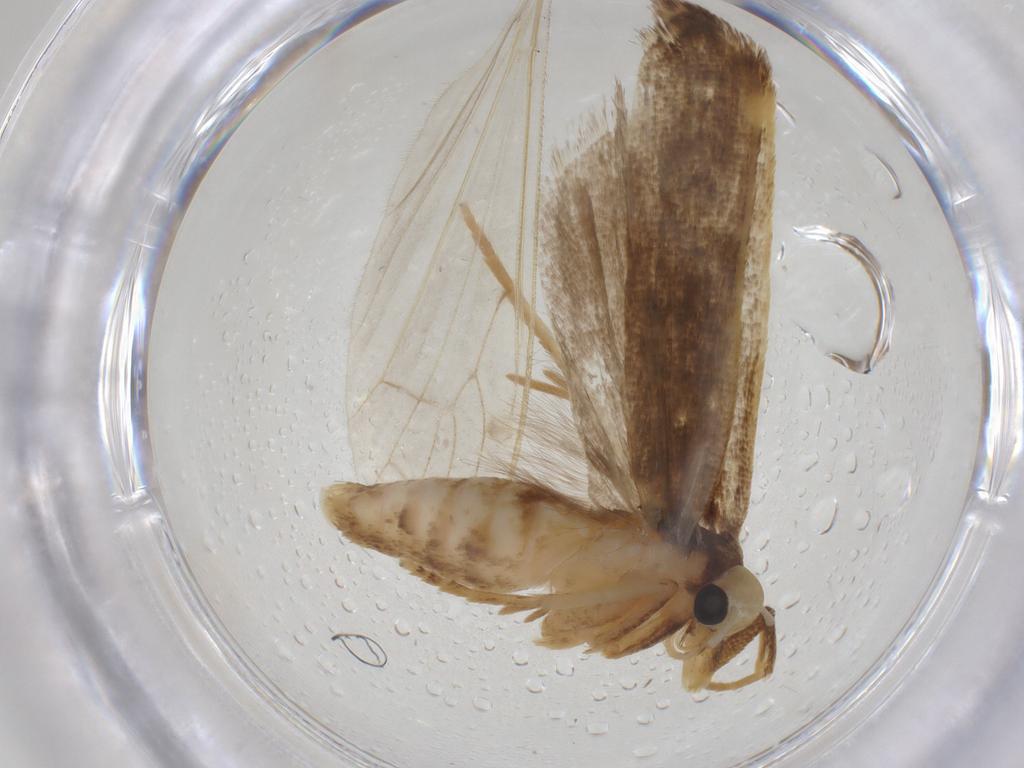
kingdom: Animalia
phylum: Arthropoda
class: Insecta
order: Lepidoptera
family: Gelechiidae
